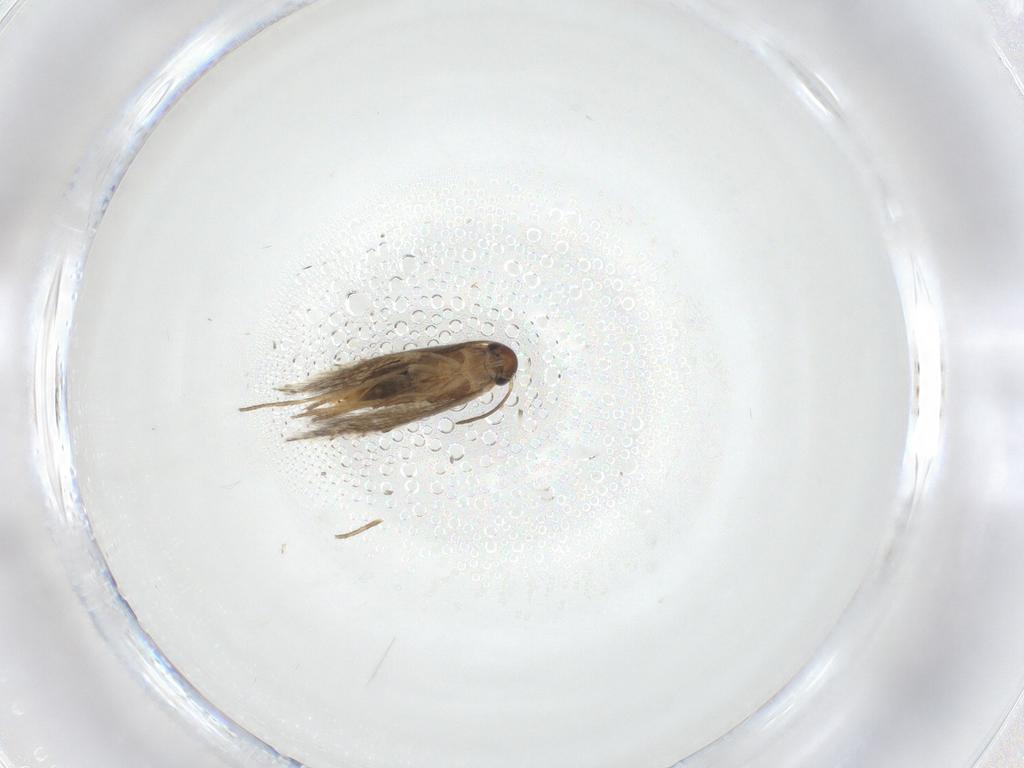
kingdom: Animalia
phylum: Arthropoda
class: Insecta
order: Lepidoptera
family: Heliozelidae
